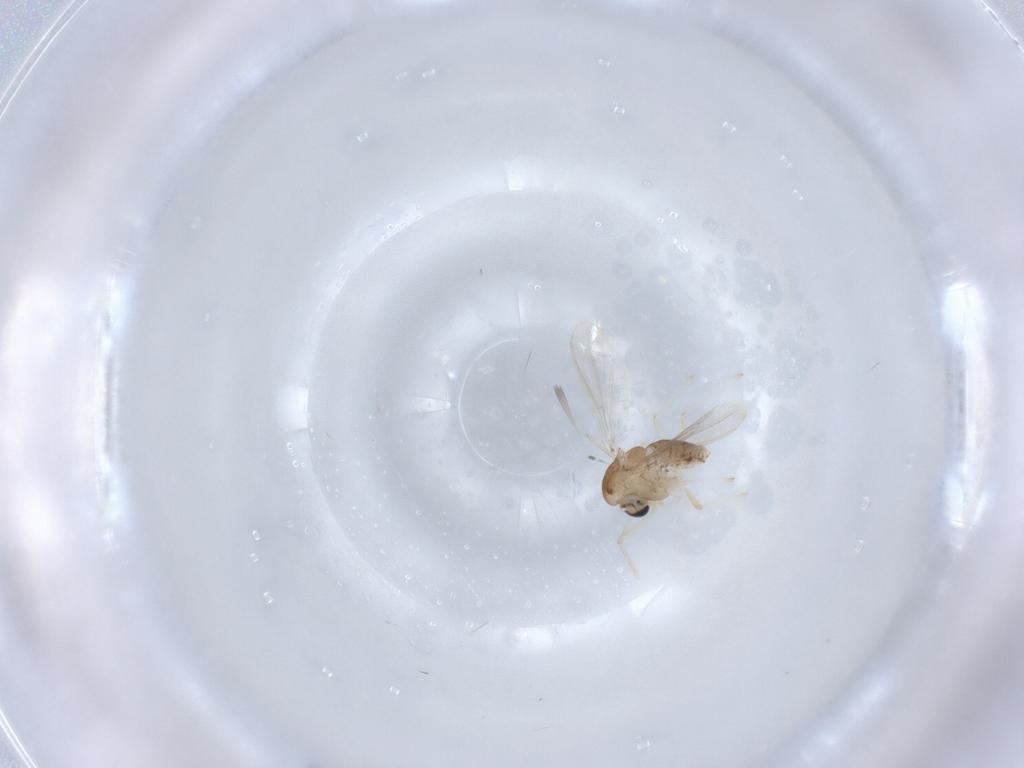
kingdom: Animalia
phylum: Arthropoda
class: Insecta
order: Diptera
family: Chironomidae
